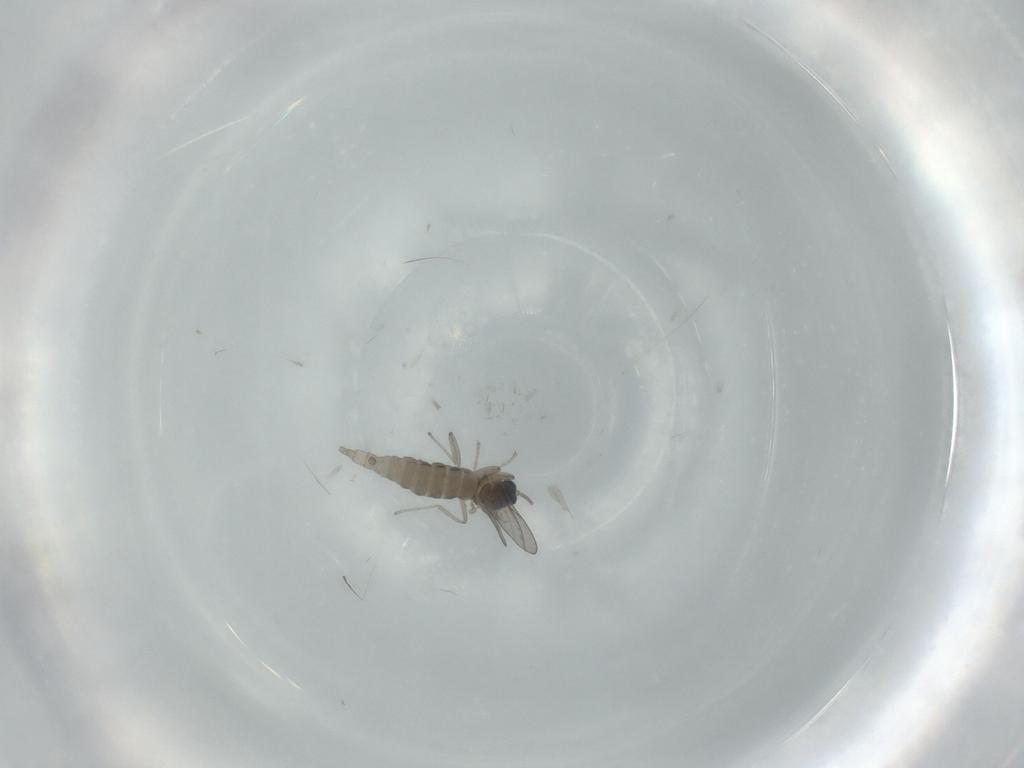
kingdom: Animalia
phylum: Arthropoda
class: Insecta
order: Diptera
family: Cecidomyiidae
